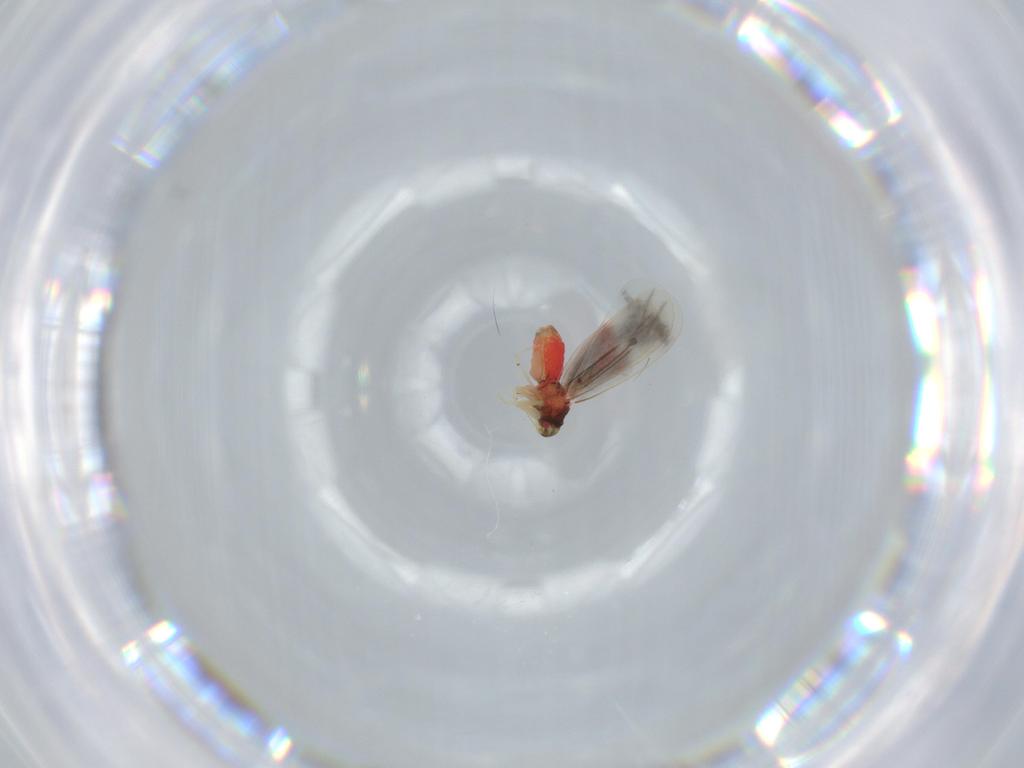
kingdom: Animalia
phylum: Arthropoda
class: Insecta
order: Hemiptera
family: Aleyrodidae
